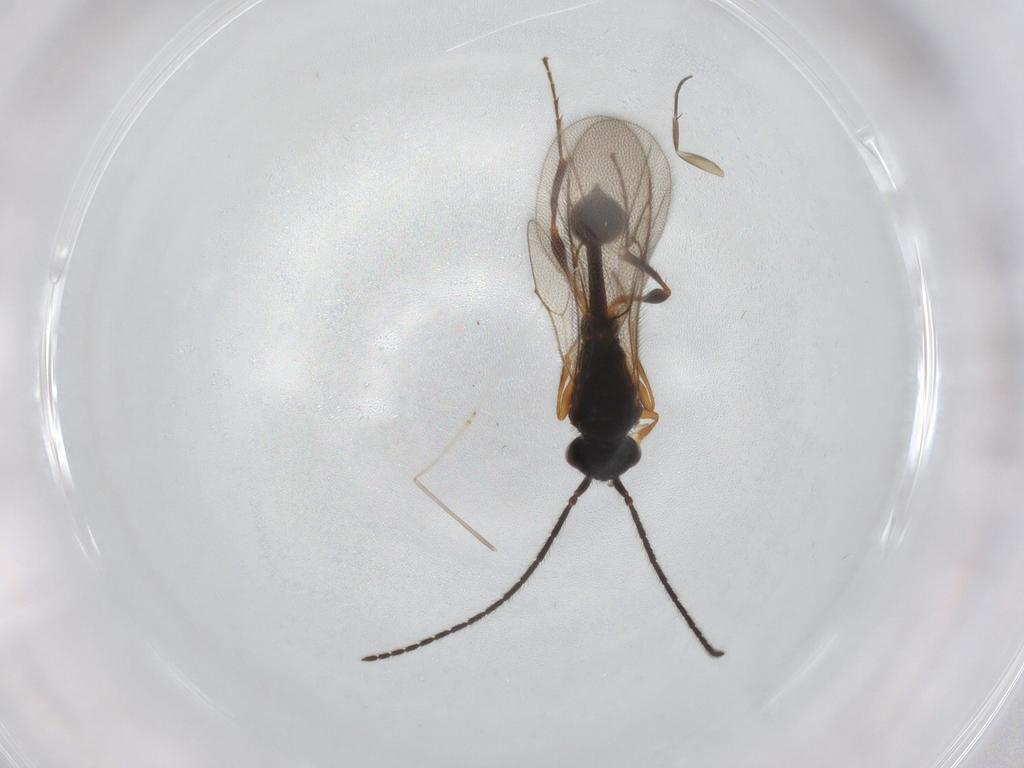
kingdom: Animalia
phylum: Arthropoda
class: Insecta
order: Hymenoptera
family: Diapriidae
